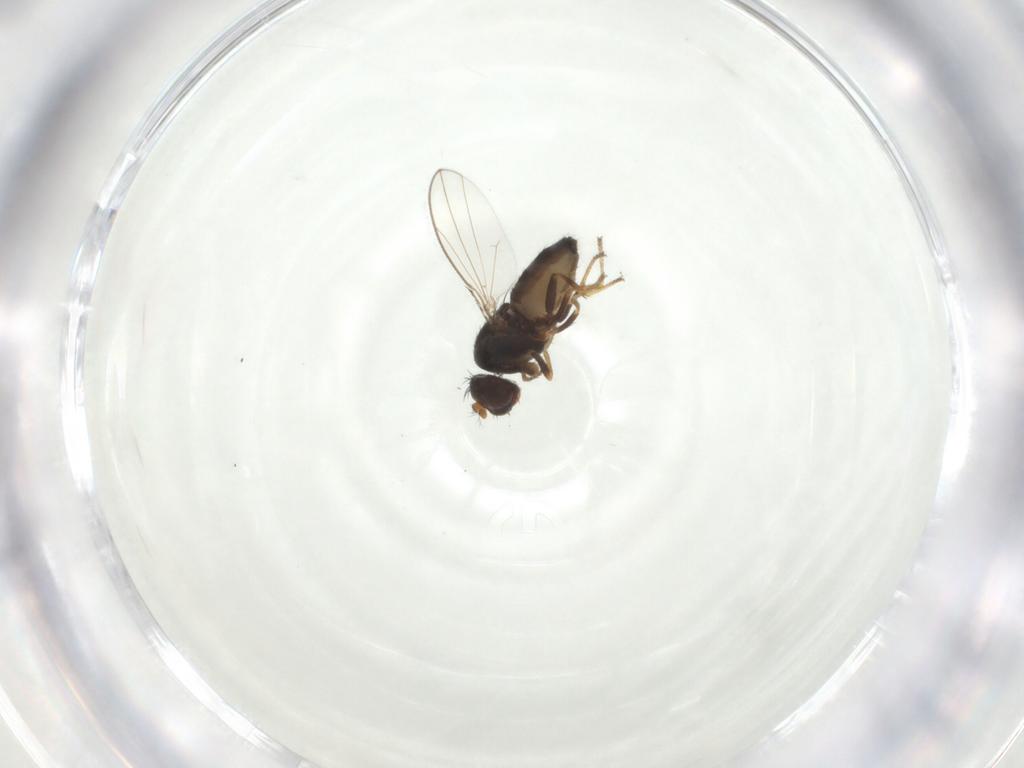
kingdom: Animalia
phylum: Arthropoda
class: Insecta
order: Diptera
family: Ephydridae
